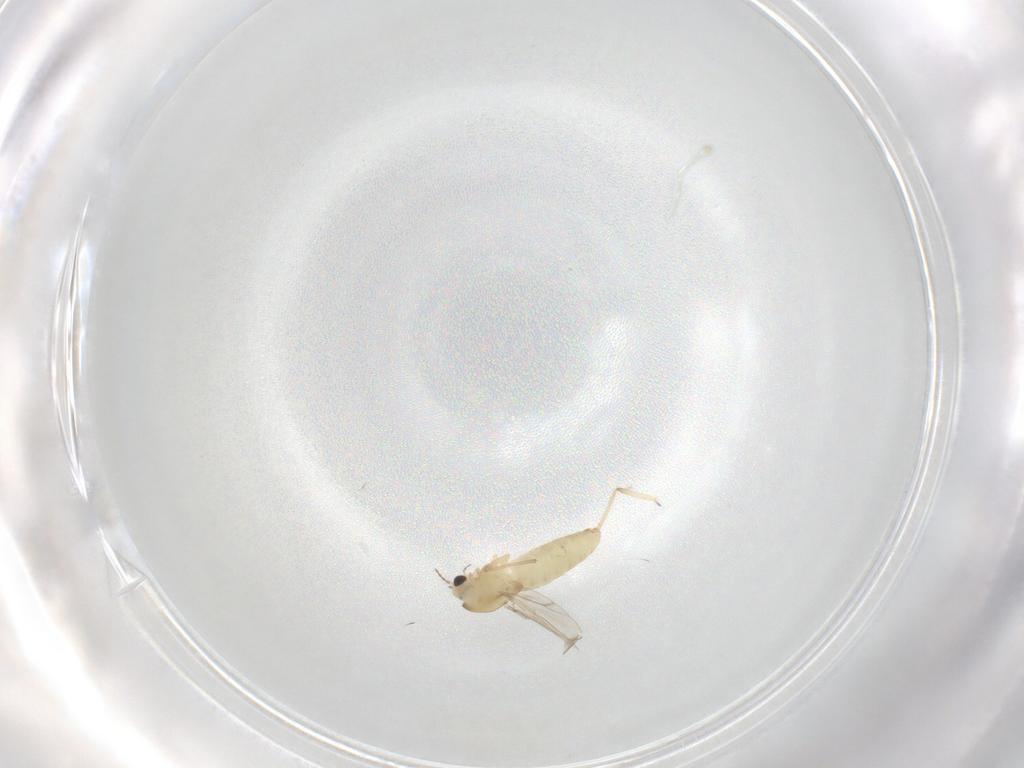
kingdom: Animalia
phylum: Arthropoda
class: Insecta
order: Diptera
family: Chironomidae
